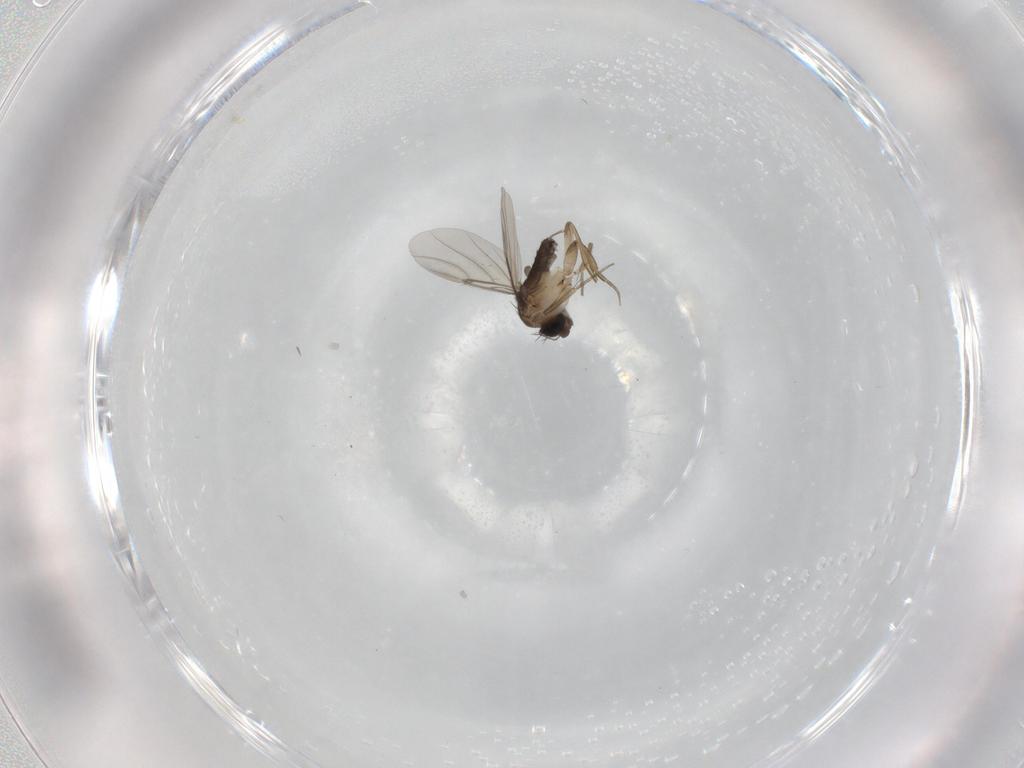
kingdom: Animalia
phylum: Arthropoda
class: Insecta
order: Diptera
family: Phoridae
